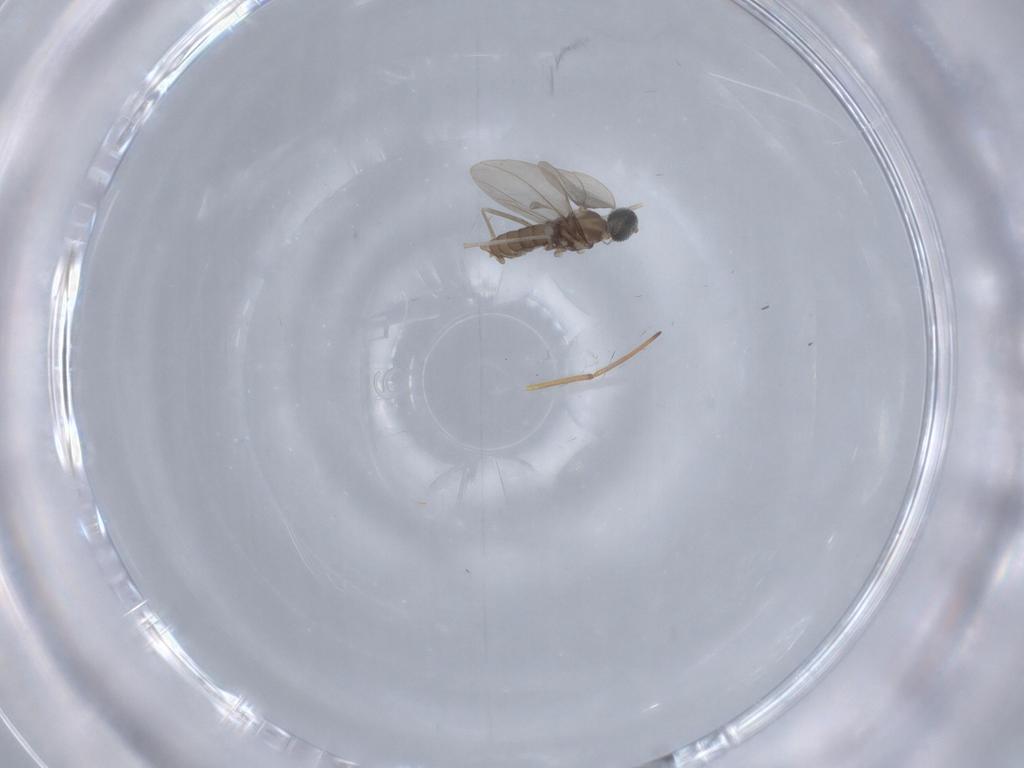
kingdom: Animalia
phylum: Arthropoda
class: Insecta
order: Diptera
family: Cecidomyiidae
